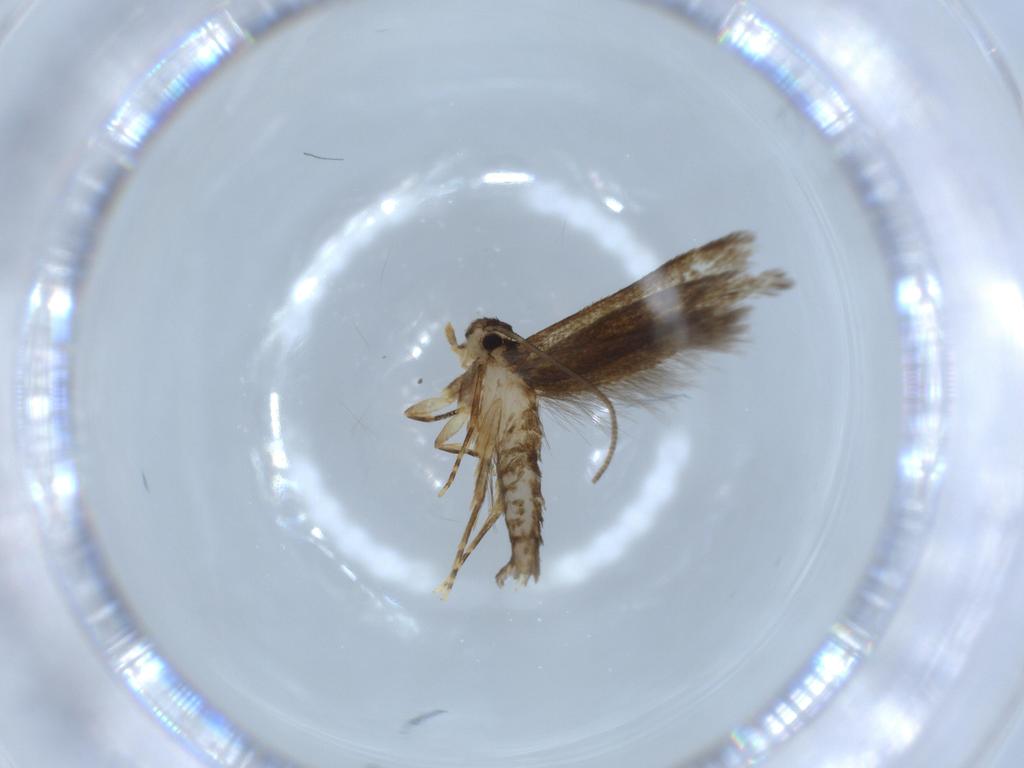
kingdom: Animalia
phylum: Arthropoda
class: Insecta
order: Lepidoptera
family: Tineidae
